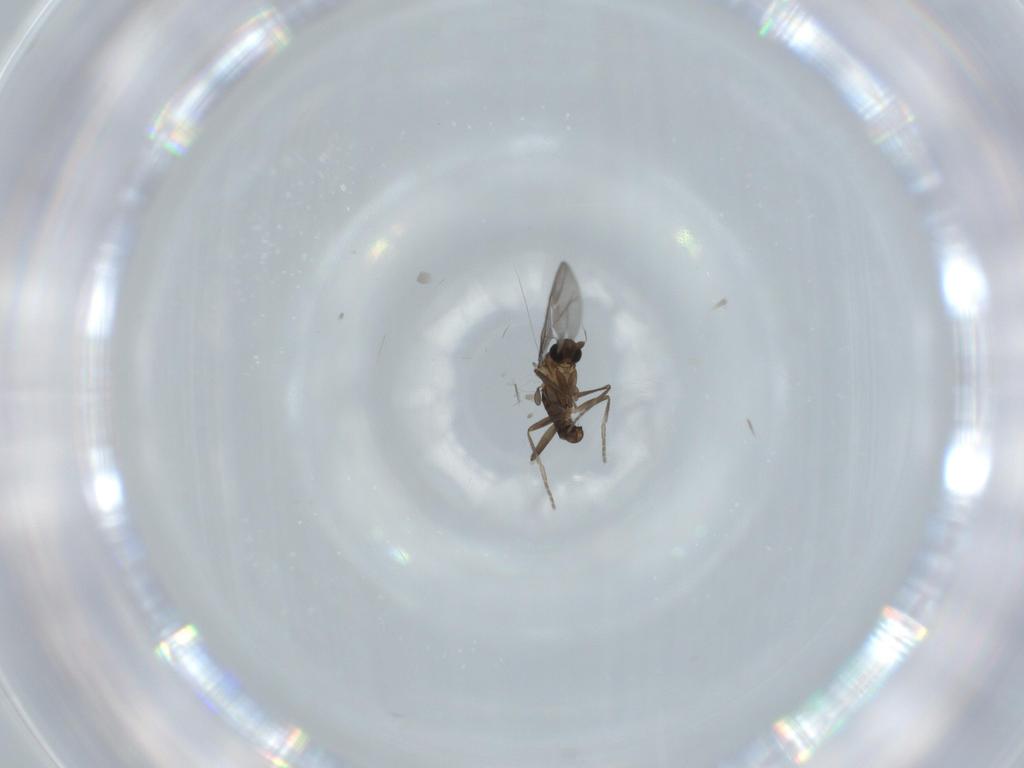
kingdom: Animalia
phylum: Arthropoda
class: Insecta
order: Diptera
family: Phoridae
